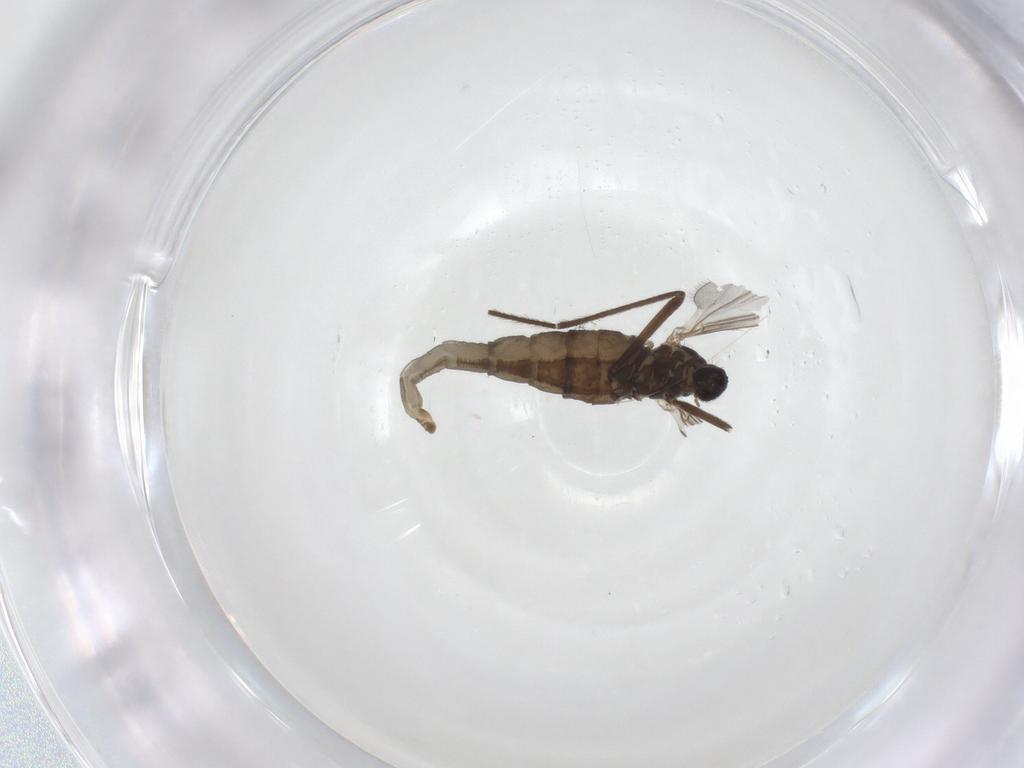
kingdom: Animalia
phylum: Arthropoda
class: Insecta
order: Diptera
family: Cecidomyiidae
